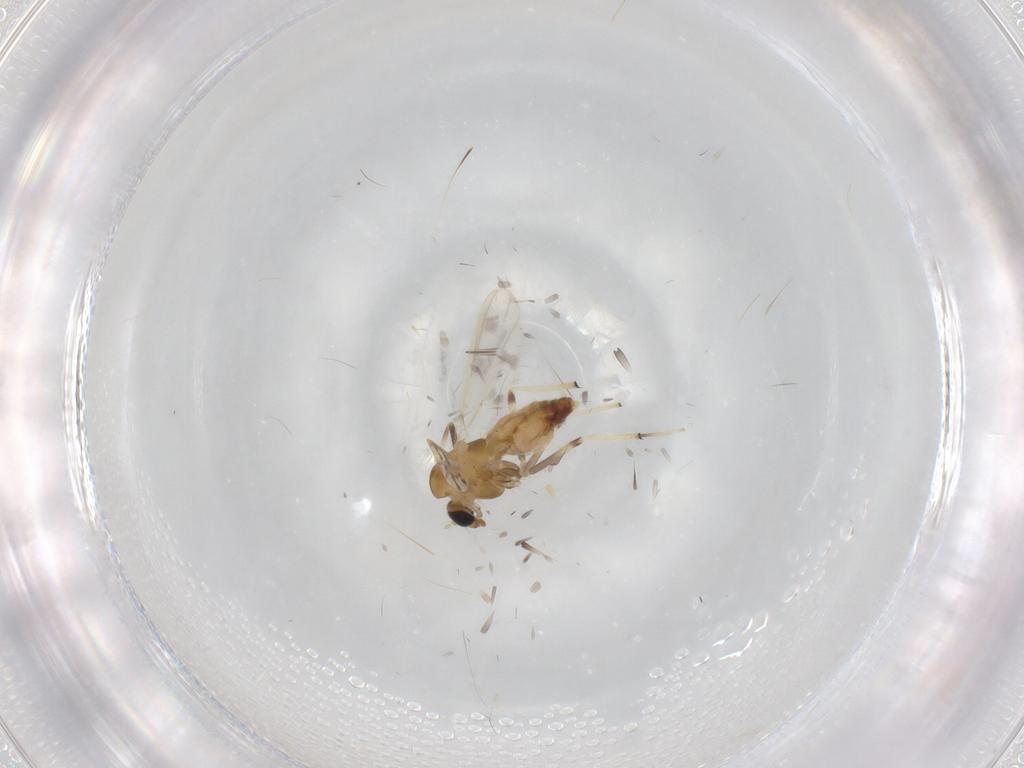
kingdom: Animalia
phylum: Arthropoda
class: Insecta
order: Diptera
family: Chironomidae
